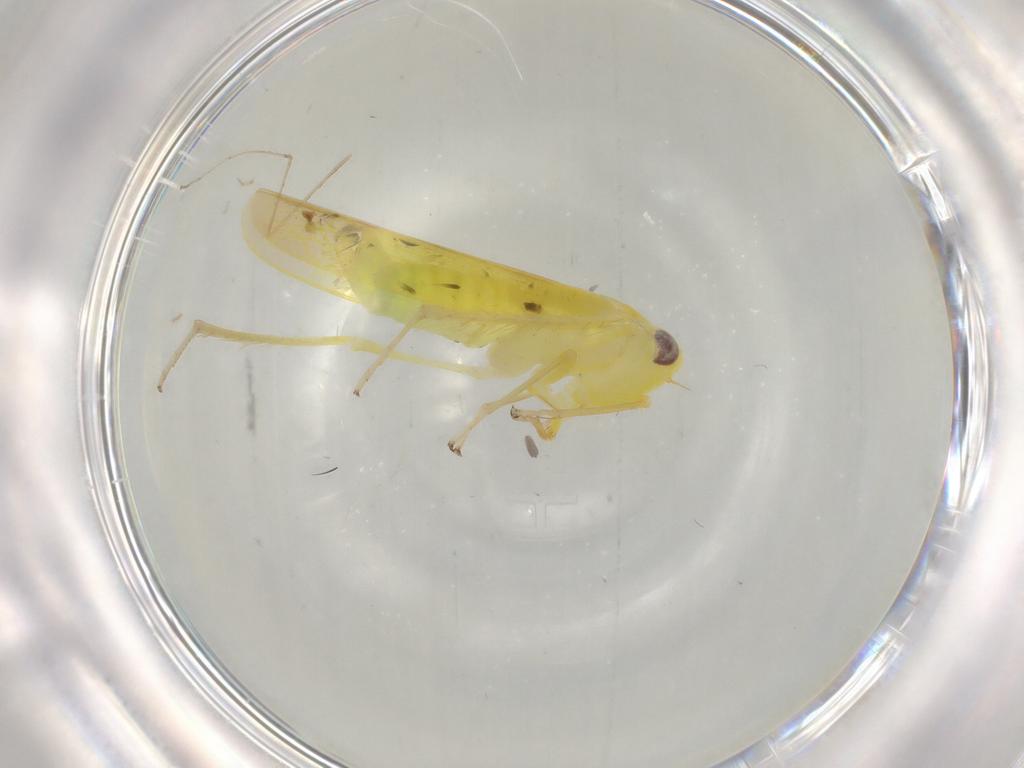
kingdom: Animalia
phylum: Arthropoda
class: Insecta
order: Hemiptera
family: Cicadellidae
